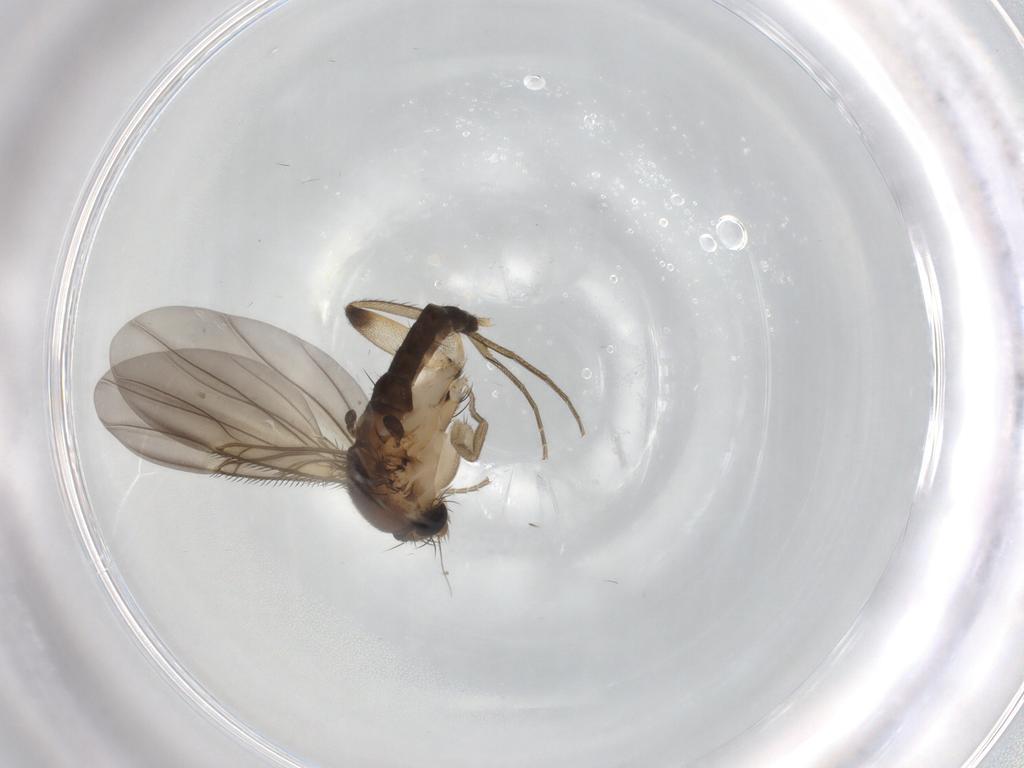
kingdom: Animalia
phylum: Arthropoda
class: Insecta
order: Diptera
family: Phoridae
